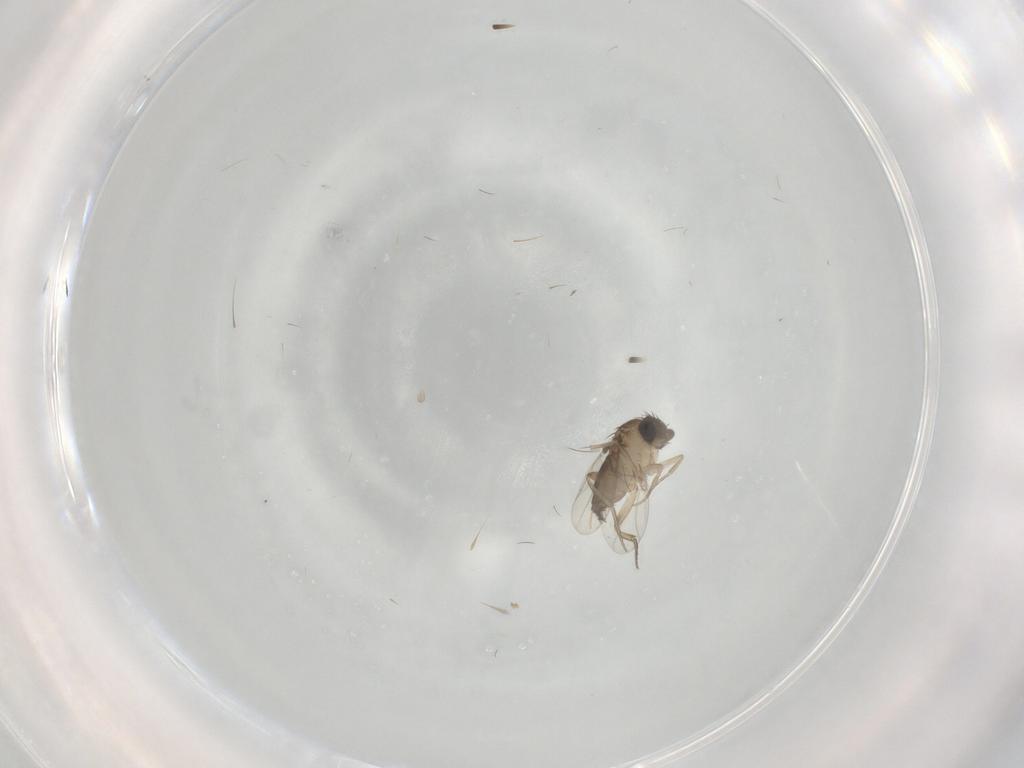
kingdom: Animalia
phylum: Arthropoda
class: Insecta
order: Diptera
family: Phoridae
